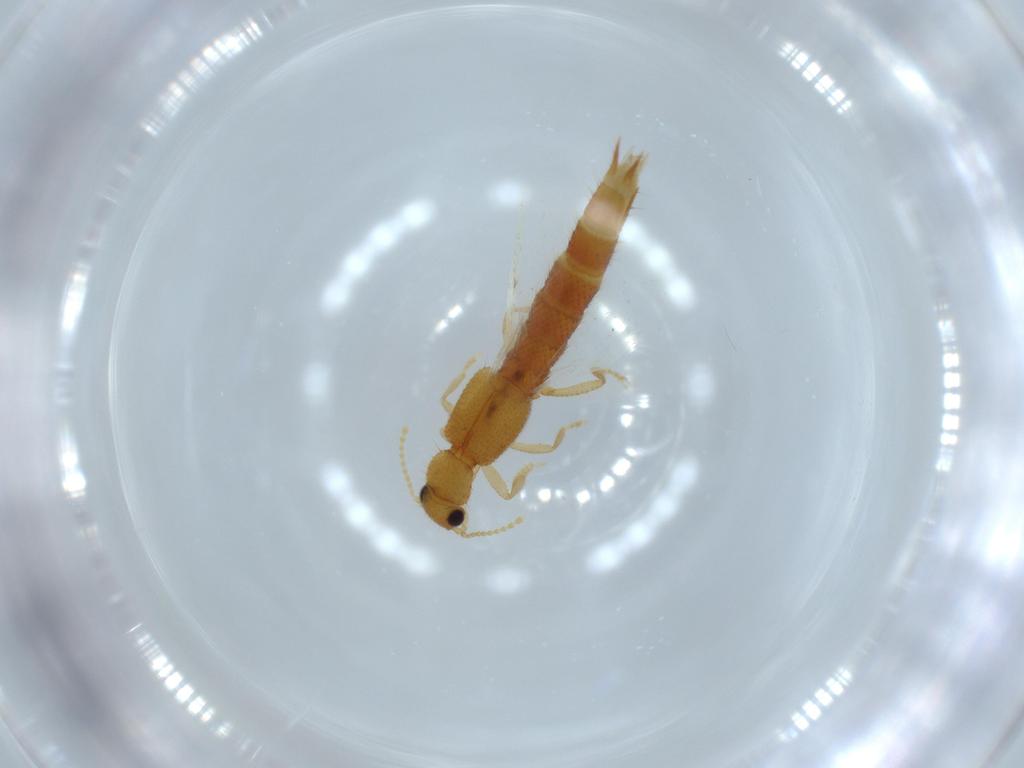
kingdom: Animalia
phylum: Arthropoda
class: Insecta
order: Coleoptera
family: Staphylinidae
